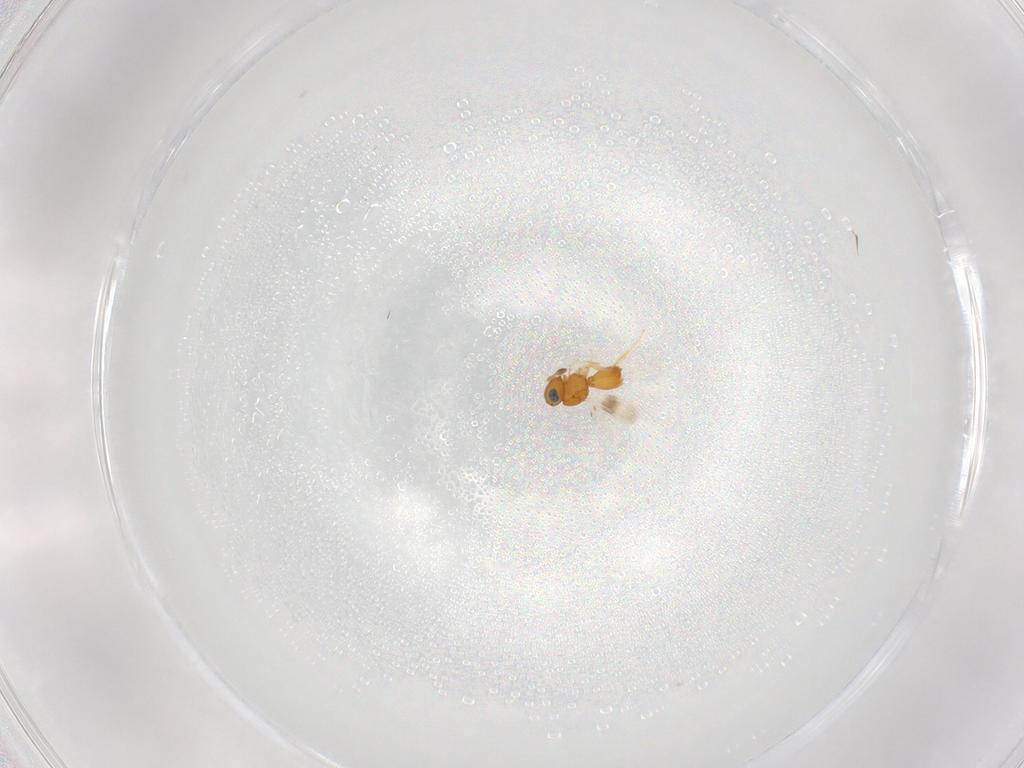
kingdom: Animalia
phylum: Arthropoda
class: Insecta
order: Hymenoptera
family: Scelionidae
